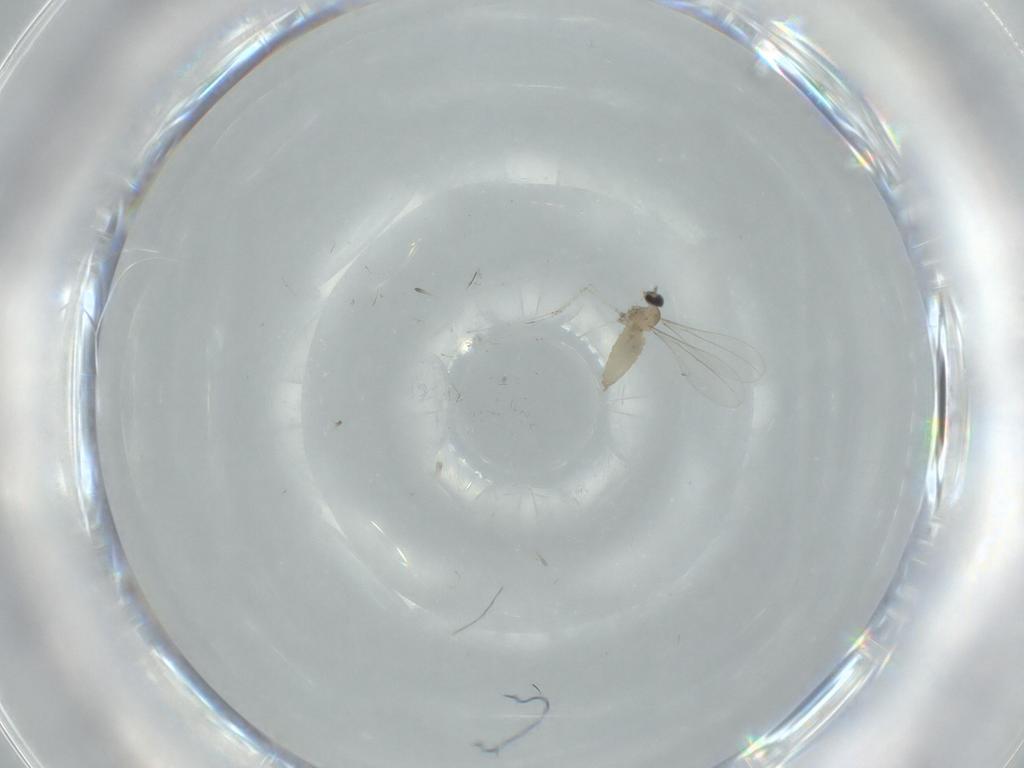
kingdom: Animalia
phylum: Arthropoda
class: Insecta
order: Diptera
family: Cecidomyiidae
